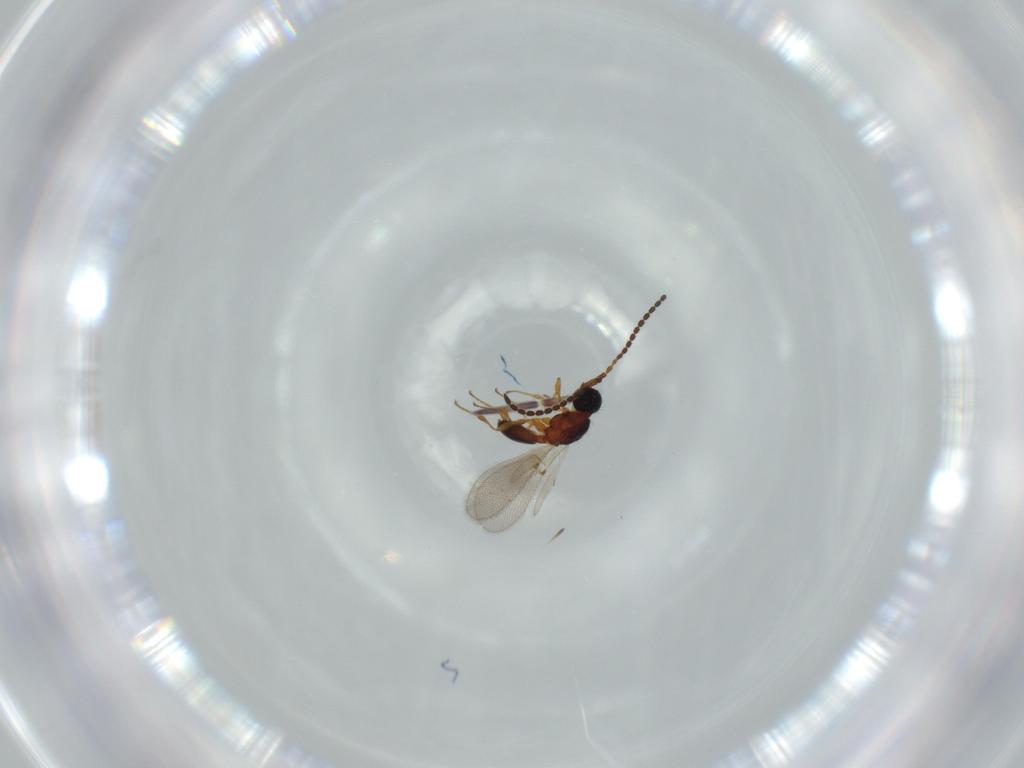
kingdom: Animalia
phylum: Arthropoda
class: Insecta
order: Hymenoptera
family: Diapriidae
